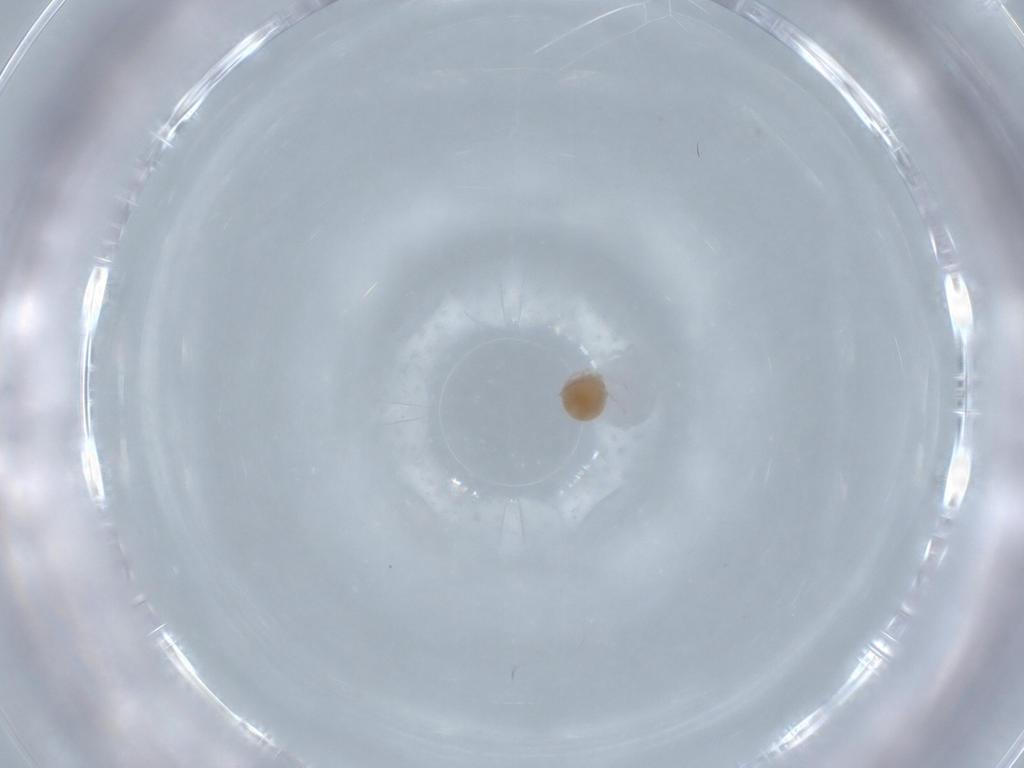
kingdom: Animalia
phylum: Arthropoda
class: Arachnida
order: Trombidiformes
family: Lebertiidae
